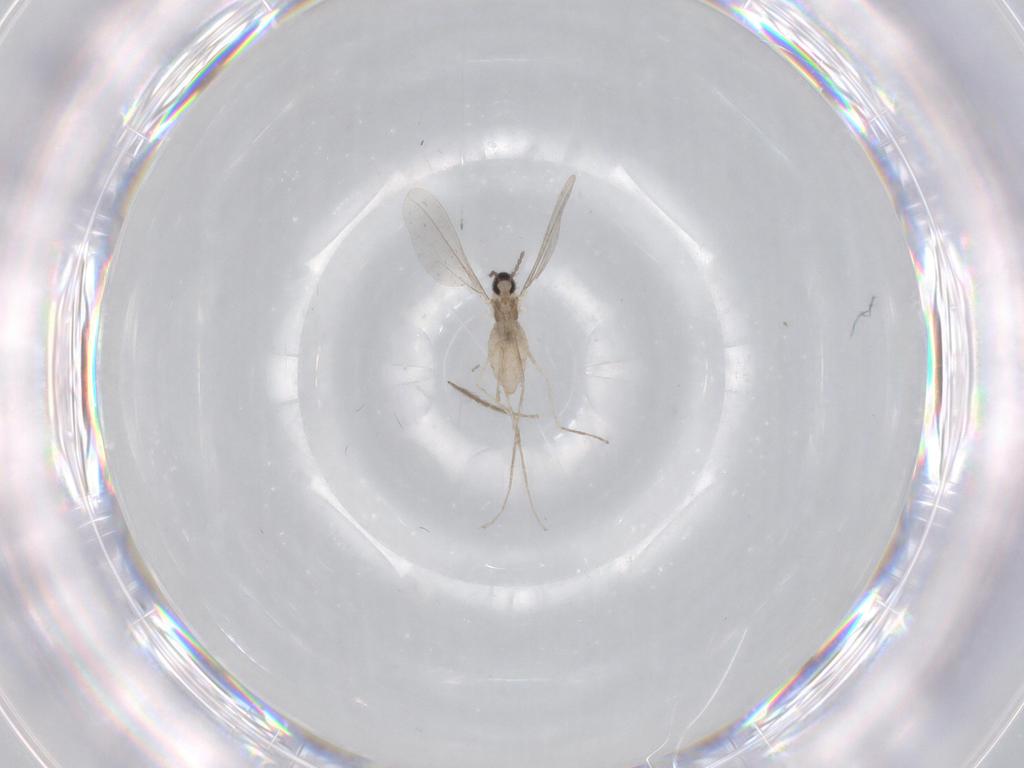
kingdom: Animalia
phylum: Arthropoda
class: Insecta
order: Diptera
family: Cecidomyiidae
